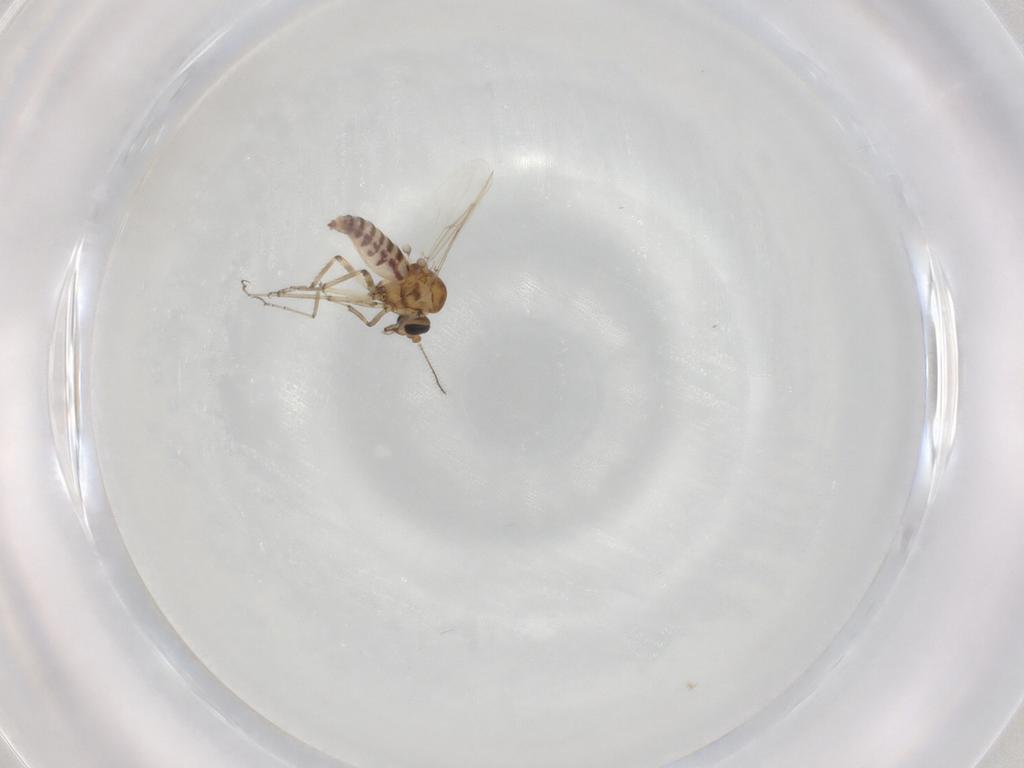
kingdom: Animalia
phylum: Arthropoda
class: Insecta
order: Diptera
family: Ceratopogonidae
